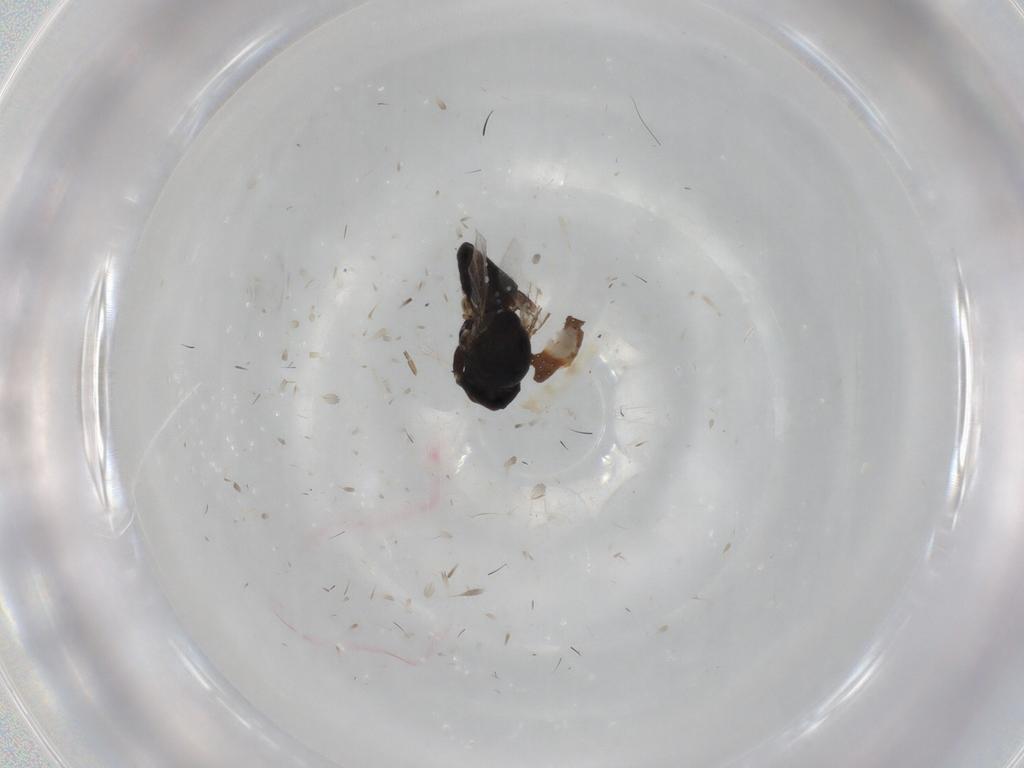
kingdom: Animalia
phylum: Arthropoda
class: Insecta
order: Diptera
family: Chloropidae
